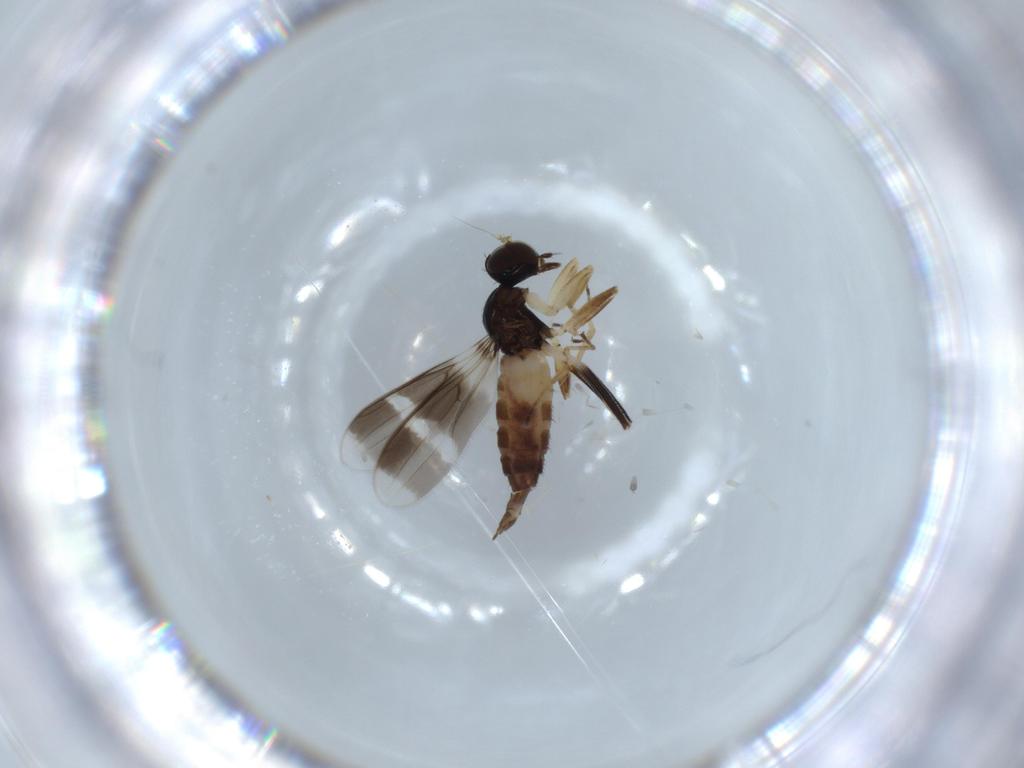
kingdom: Animalia
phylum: Arthropoda
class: Insecta
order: Diptera
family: Hybotidae
